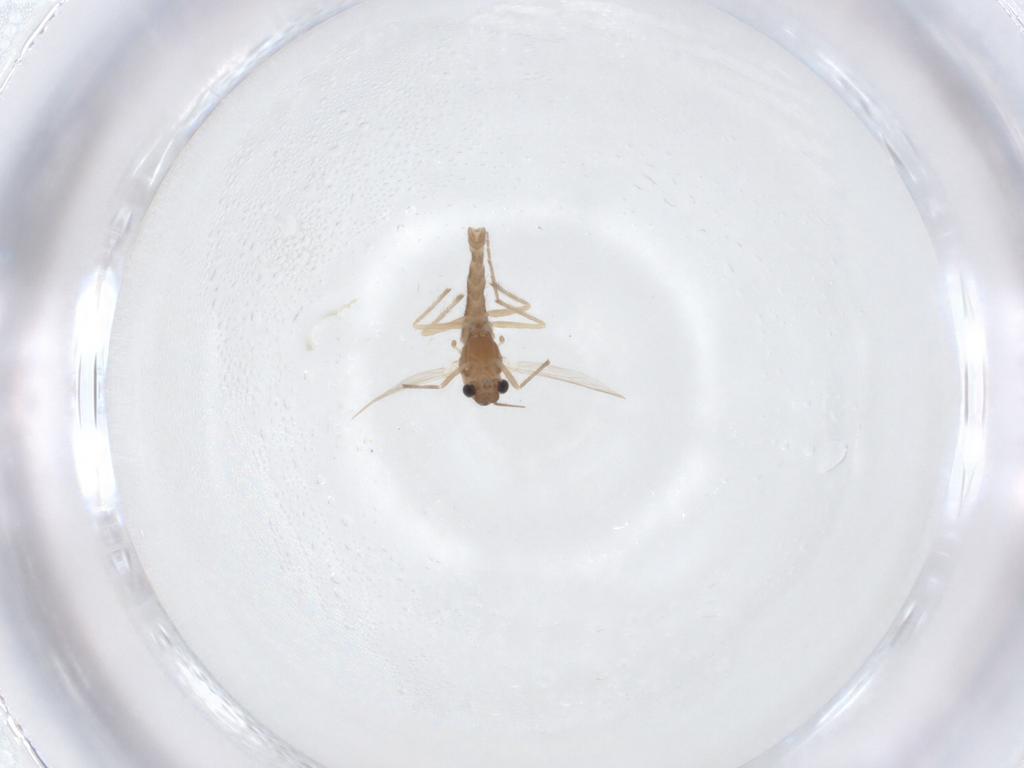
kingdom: Animalia
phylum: Arthropoda
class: Insecta
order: Diptera
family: Chironomidae
